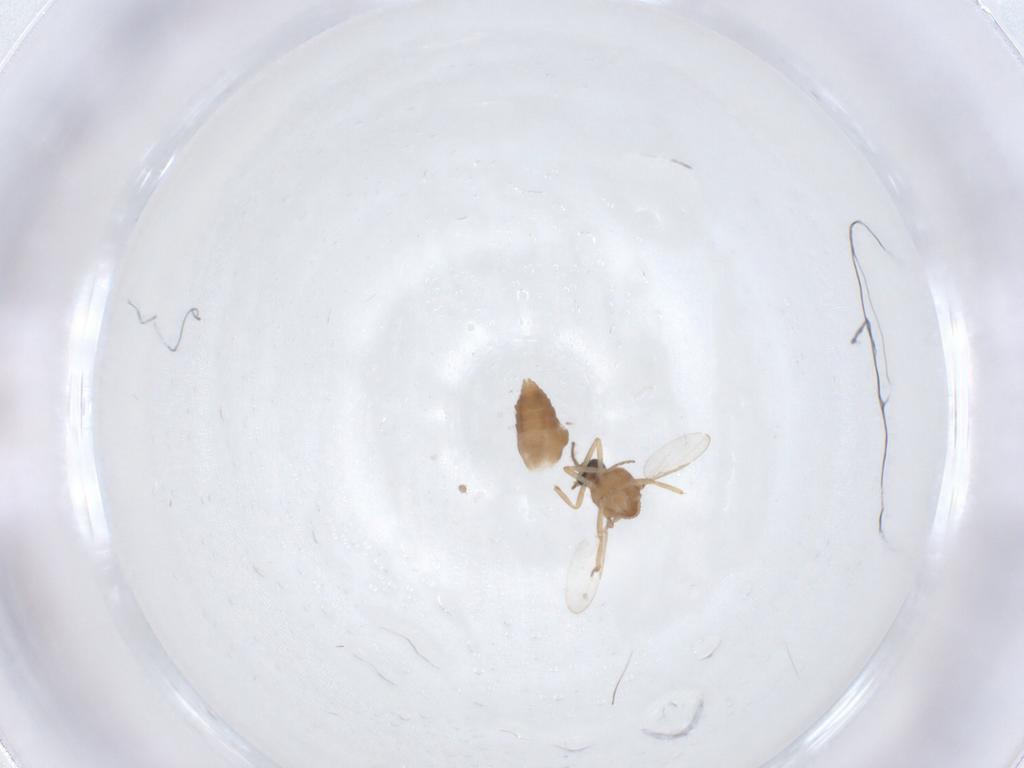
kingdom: Animalia
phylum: Arthropoda
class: Insecta
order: Diptera
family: Ceratopogonidae
